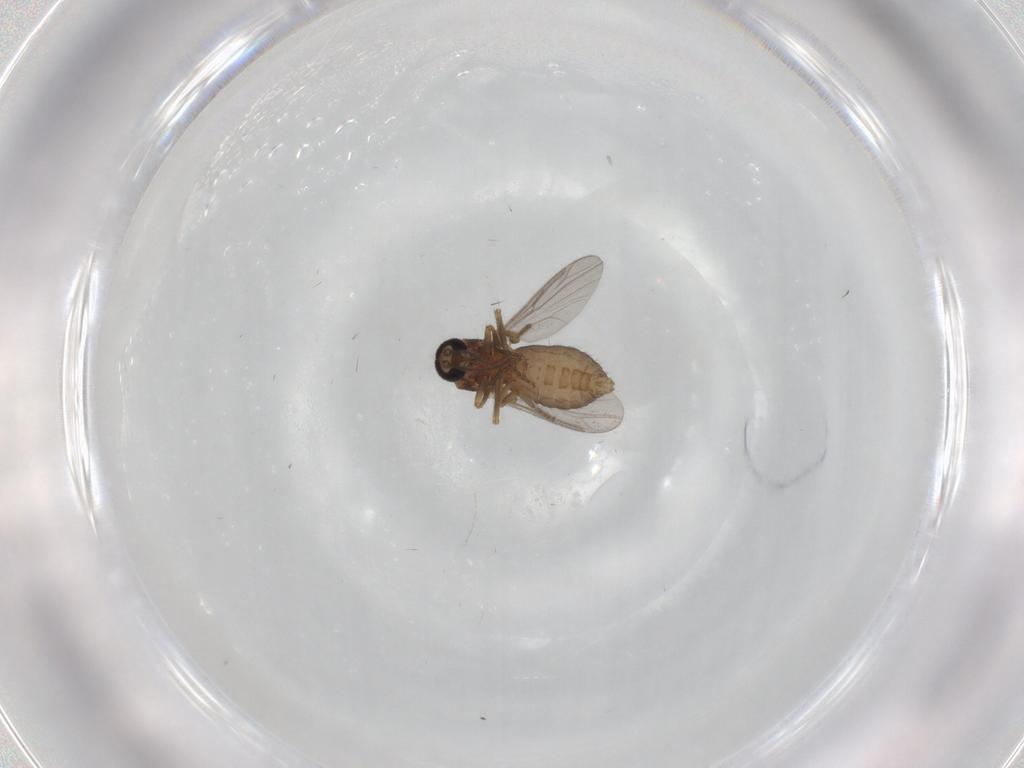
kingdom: Animalia
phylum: Arthropoda
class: Insecta
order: Diptera
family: Ceratopogonidae
